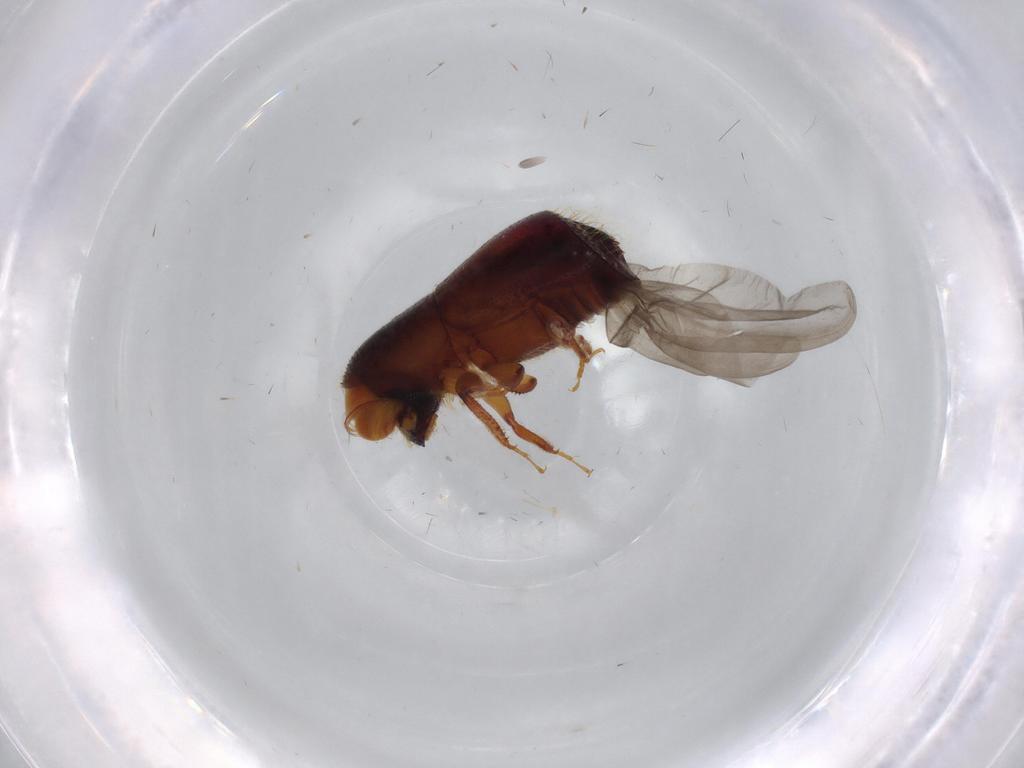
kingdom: Animalia
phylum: Arthropoda
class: Insecta
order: Coleoptera
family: Curculionidae
